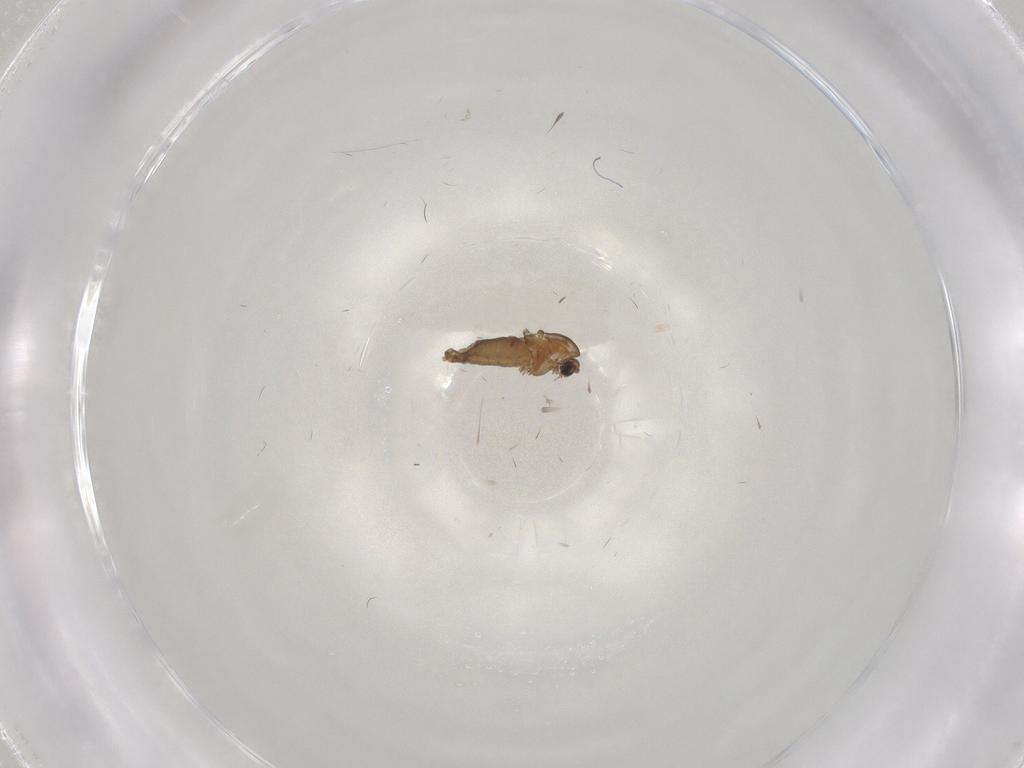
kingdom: Animalia
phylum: Arthropoda
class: Insecta
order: Diptera
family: Chironomidae
